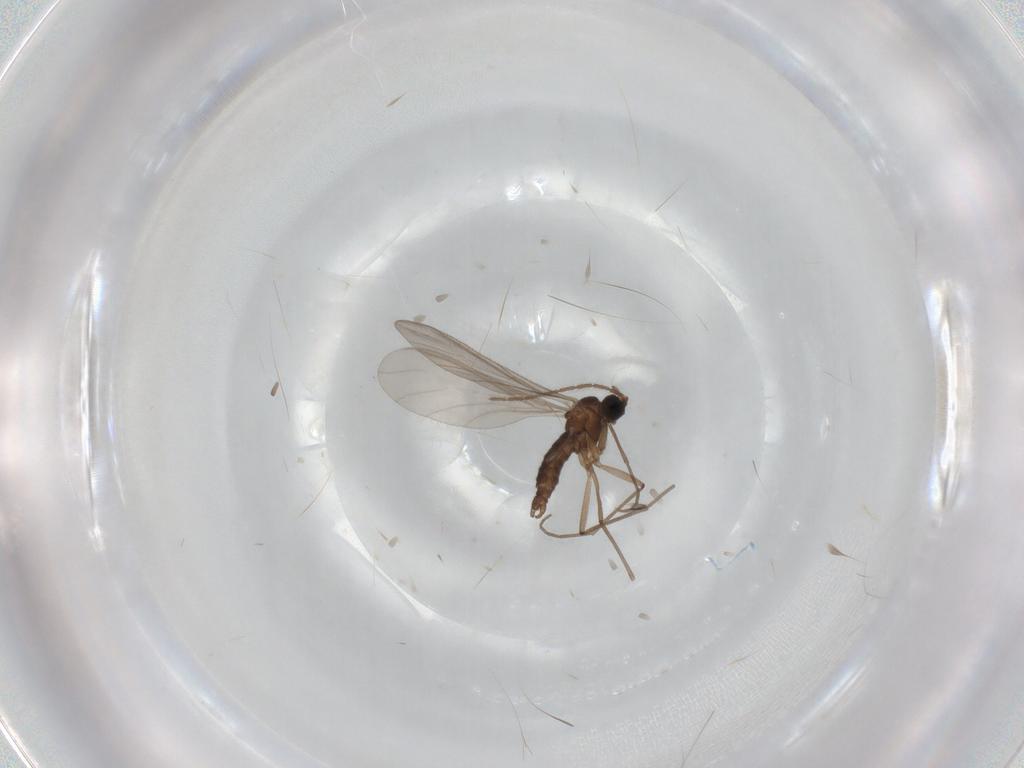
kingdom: Animalia
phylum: Arthropoda
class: Insecta
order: Diptera
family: Sciaridae
